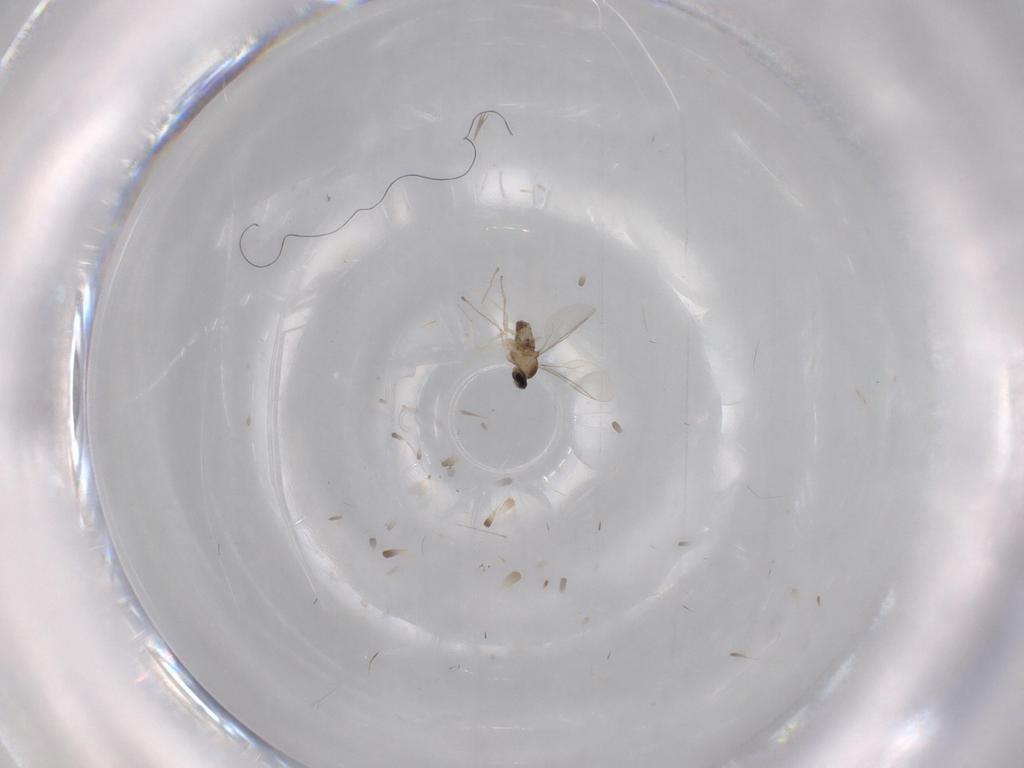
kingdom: Animalia
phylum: Arthropoda
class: Insecta
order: Diptera
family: Cecidomyiidae
